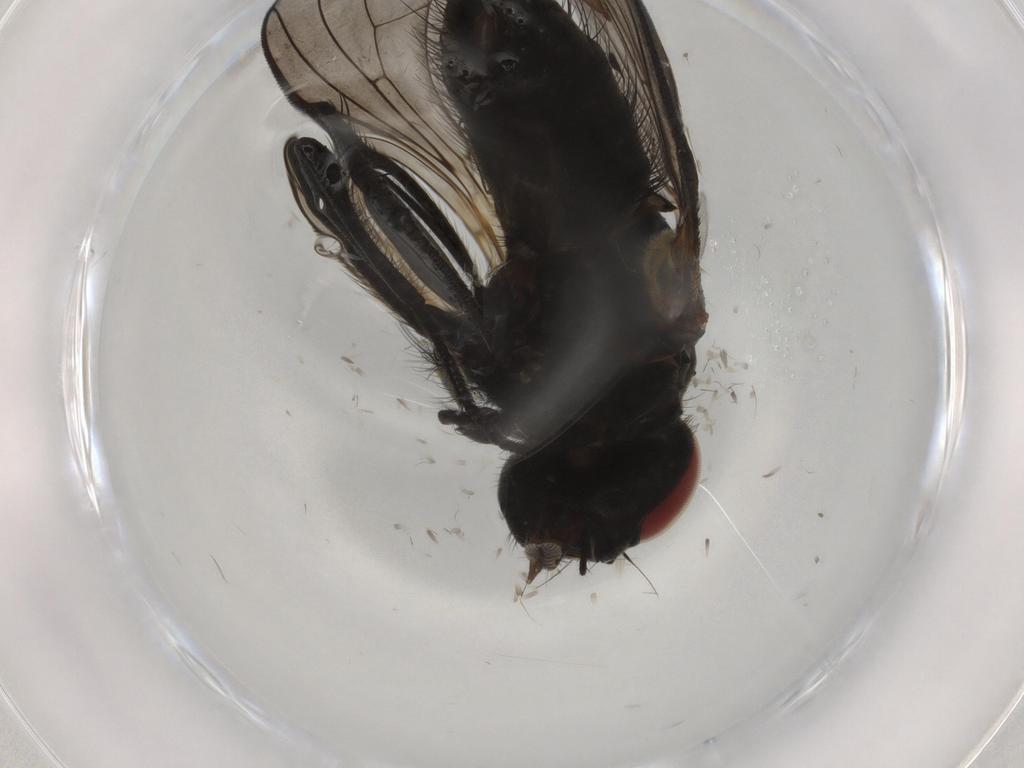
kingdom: Animalia
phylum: Arthropoda
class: Insecta
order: Diptera
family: Muscidae
